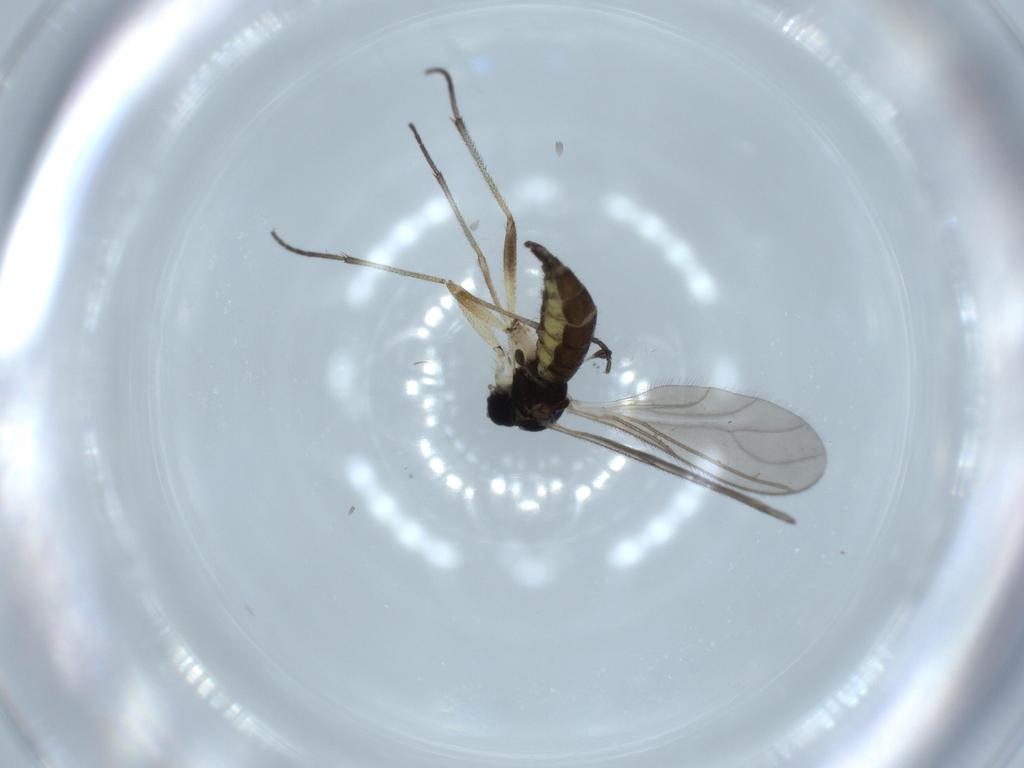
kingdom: Animalia
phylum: Arthropoda
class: Insecta
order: Diptera
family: Sciaridae
